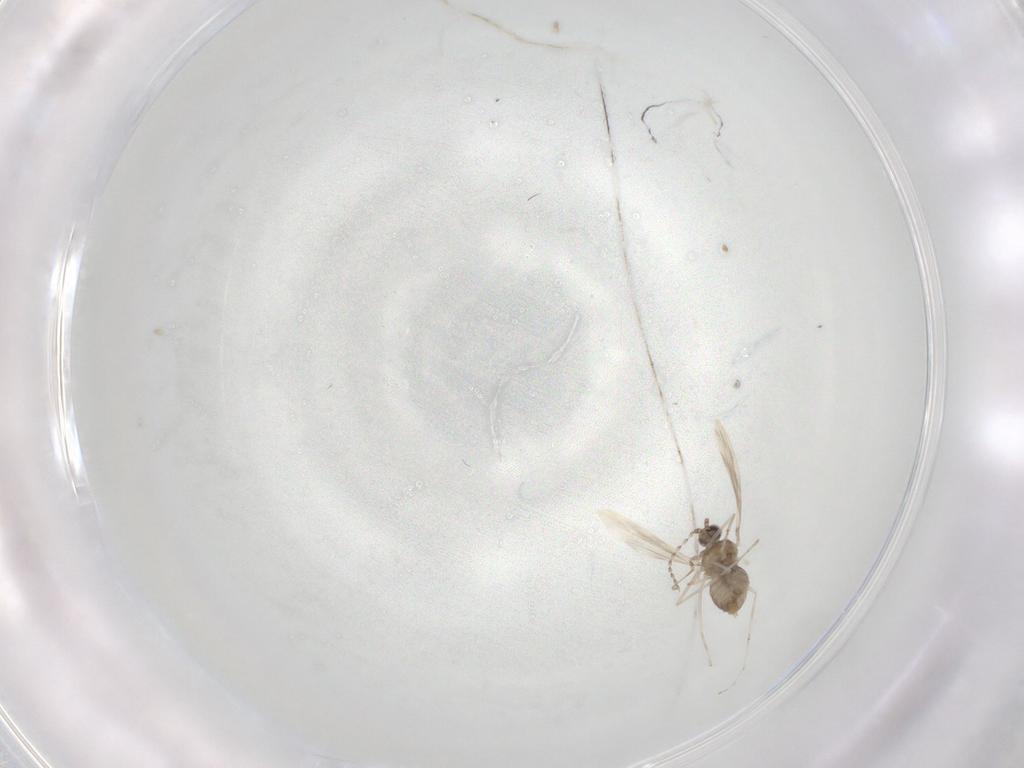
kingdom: Animalia
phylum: Arthropoda
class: Insecta
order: Diptera
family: Cecidomyiidae
